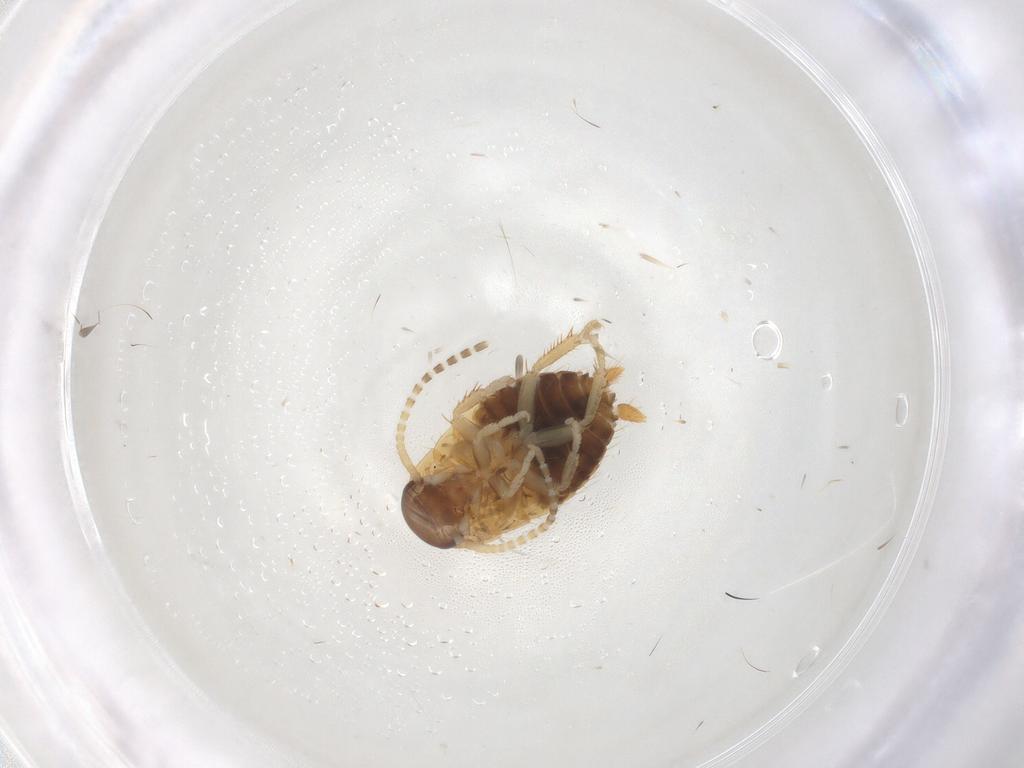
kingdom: Animalia
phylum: Arthropoda
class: Insecta
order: Blattodea
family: Ectobiidae
